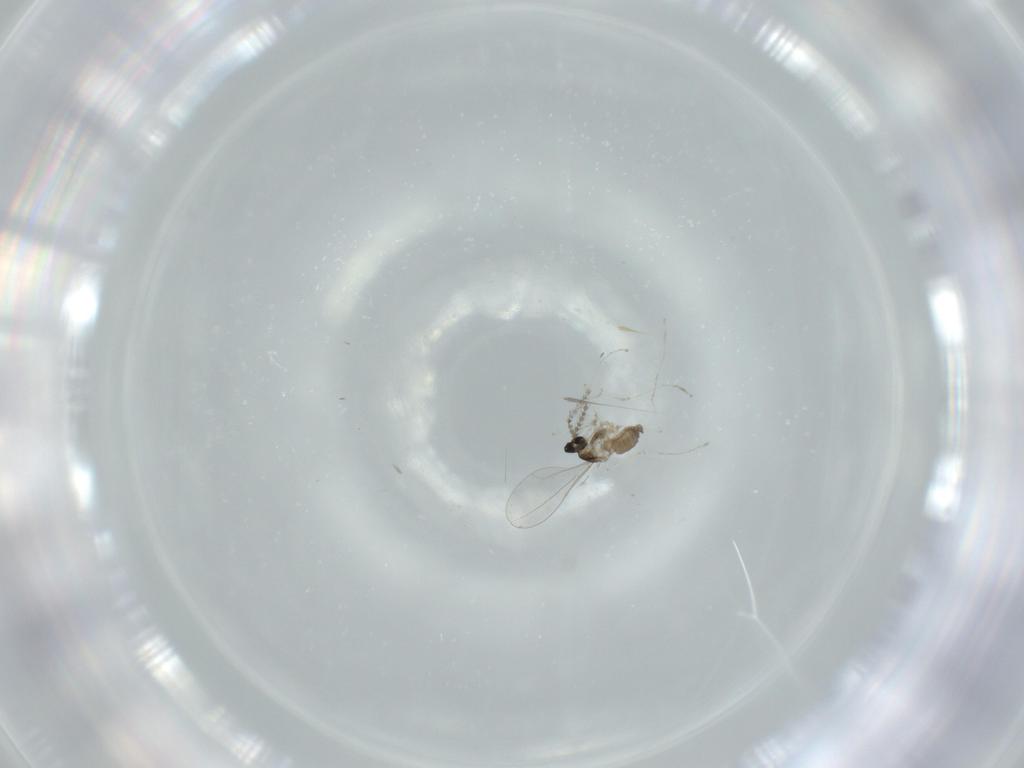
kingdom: Animalia
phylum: Arthropoda
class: Insecta
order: Diptera
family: Cecidomyiidae
